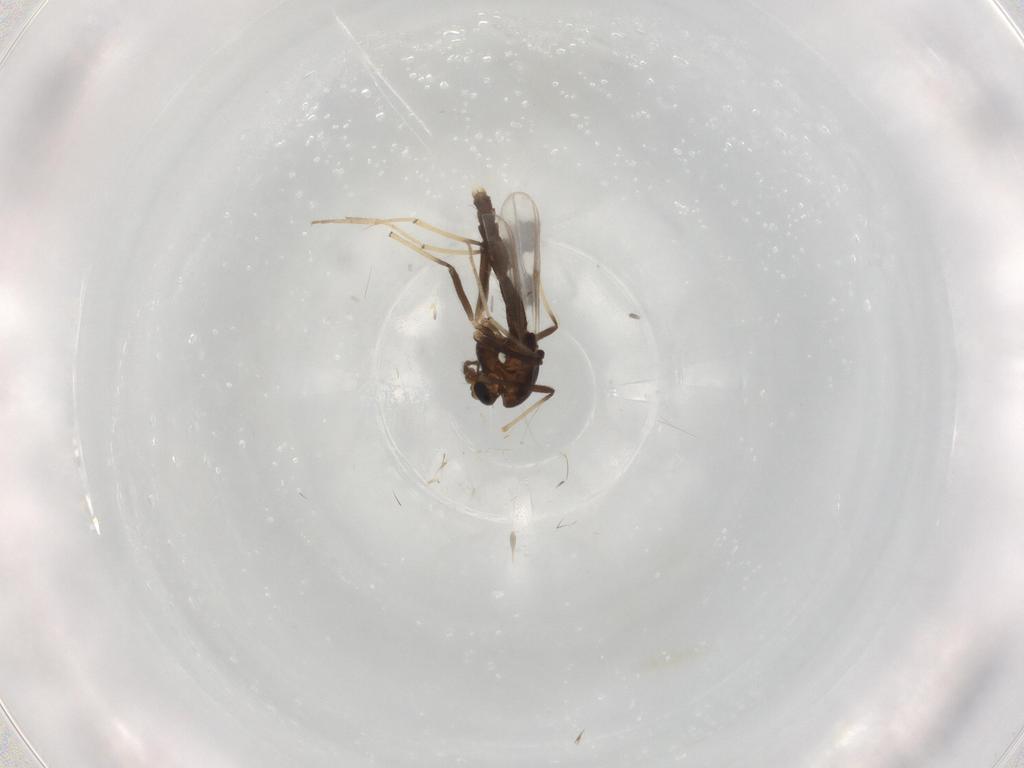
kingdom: Animalia
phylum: Arthropoda
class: Insecta
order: Diptera
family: Chironomidae
